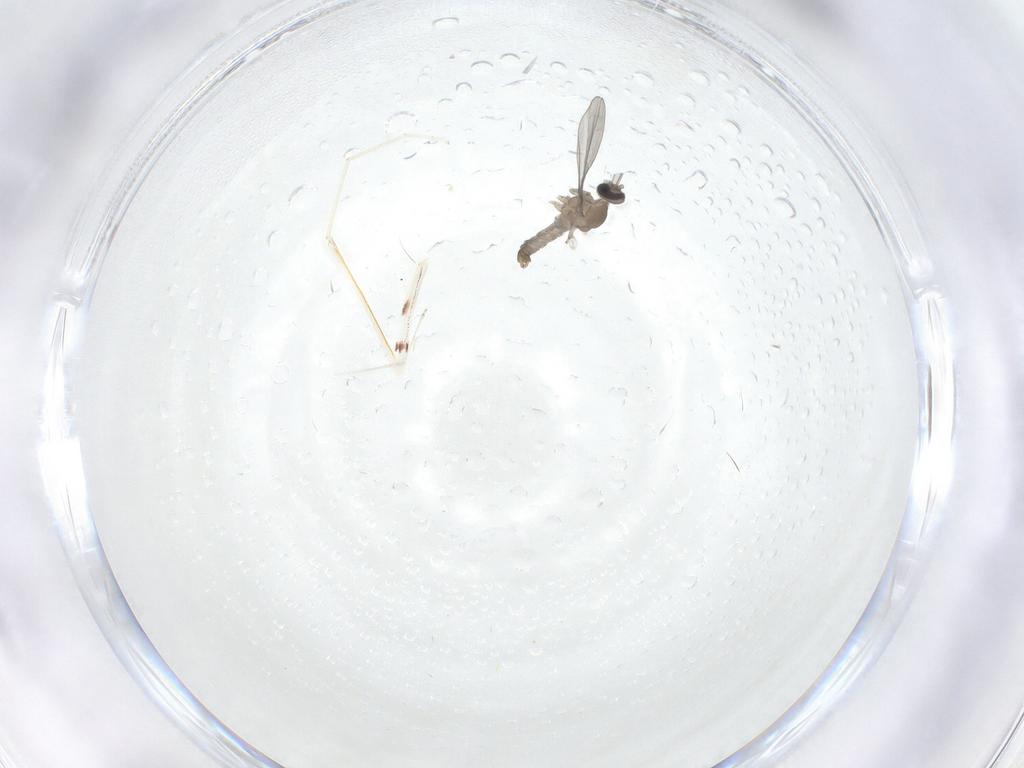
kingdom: Animalia
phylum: Arthropoda
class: Insecta
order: Diptera
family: Cecidomyiidae
